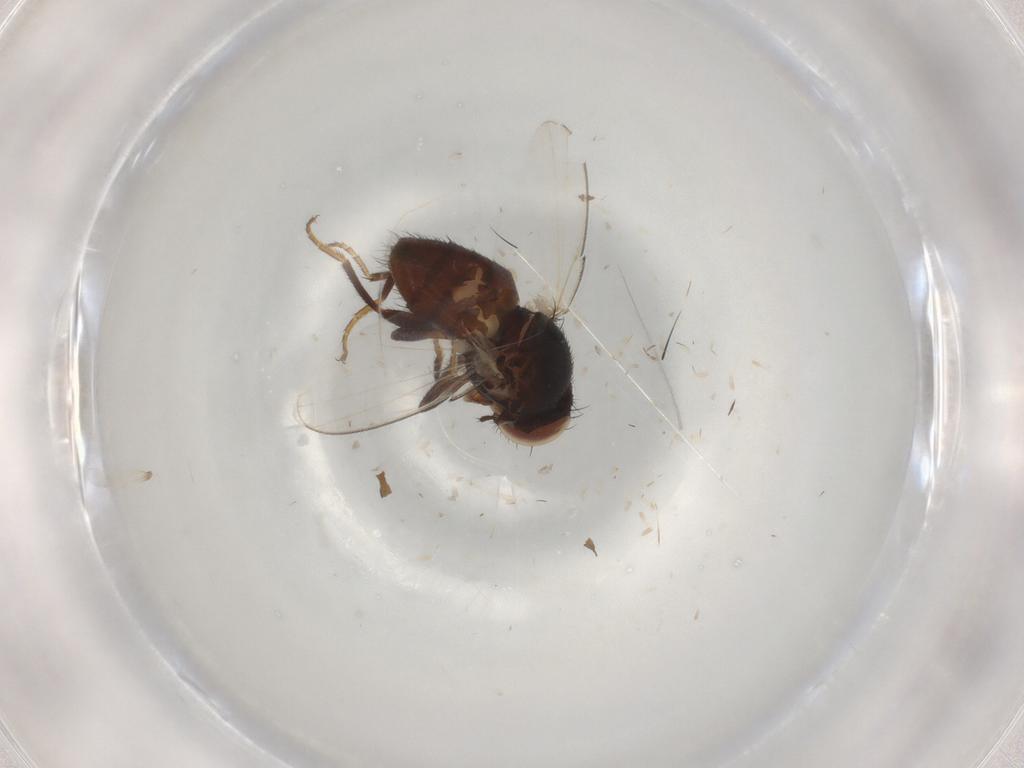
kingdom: Animalia
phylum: Arthropoda
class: Insecta
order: Diptera
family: Milichiidae
